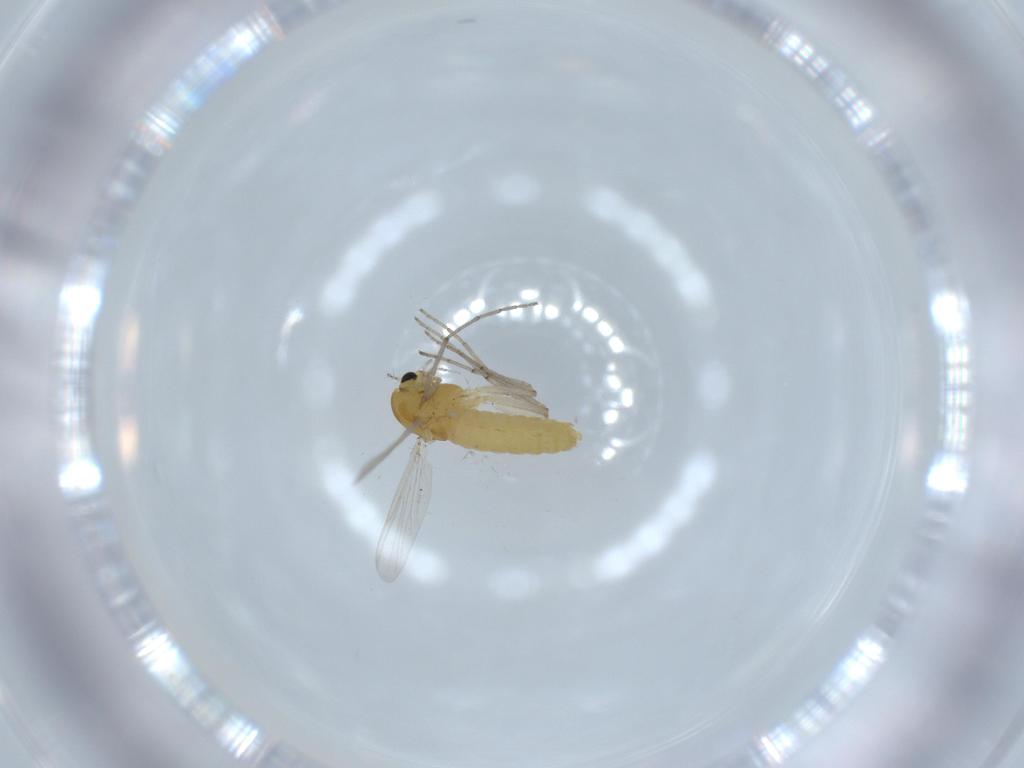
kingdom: Animalia
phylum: Arthropoda
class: Insecta
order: Diptera
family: Chironomidae
